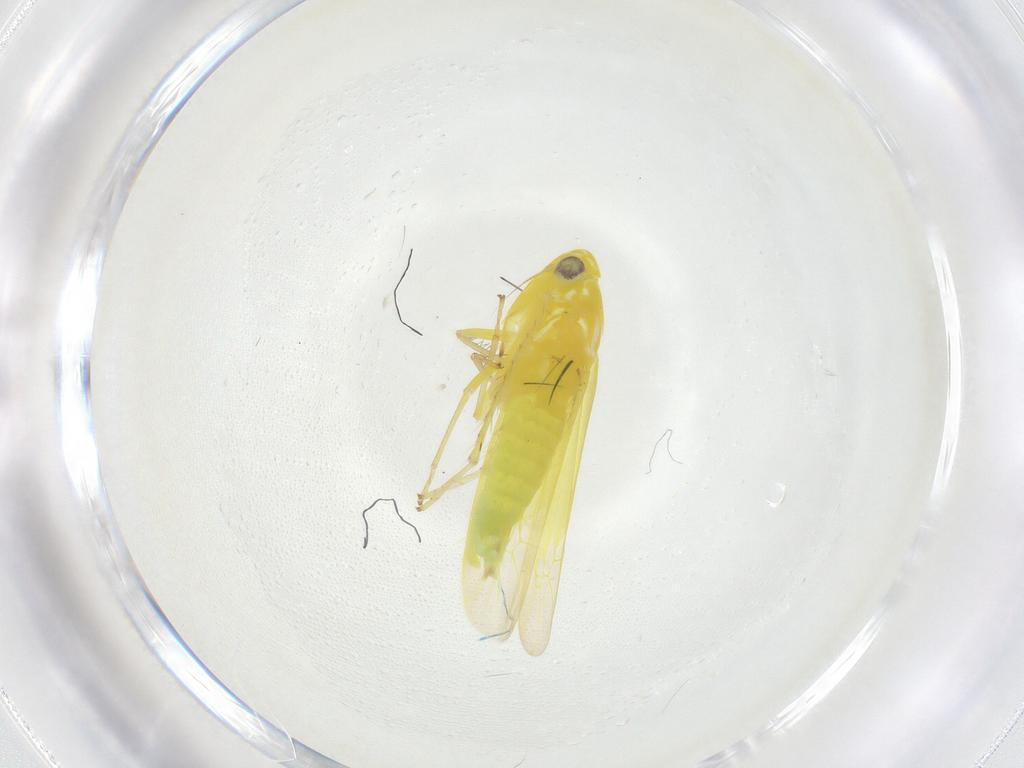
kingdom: Animalia
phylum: Arthropoda
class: Insecta
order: Hemiptera
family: Cicadellidae
